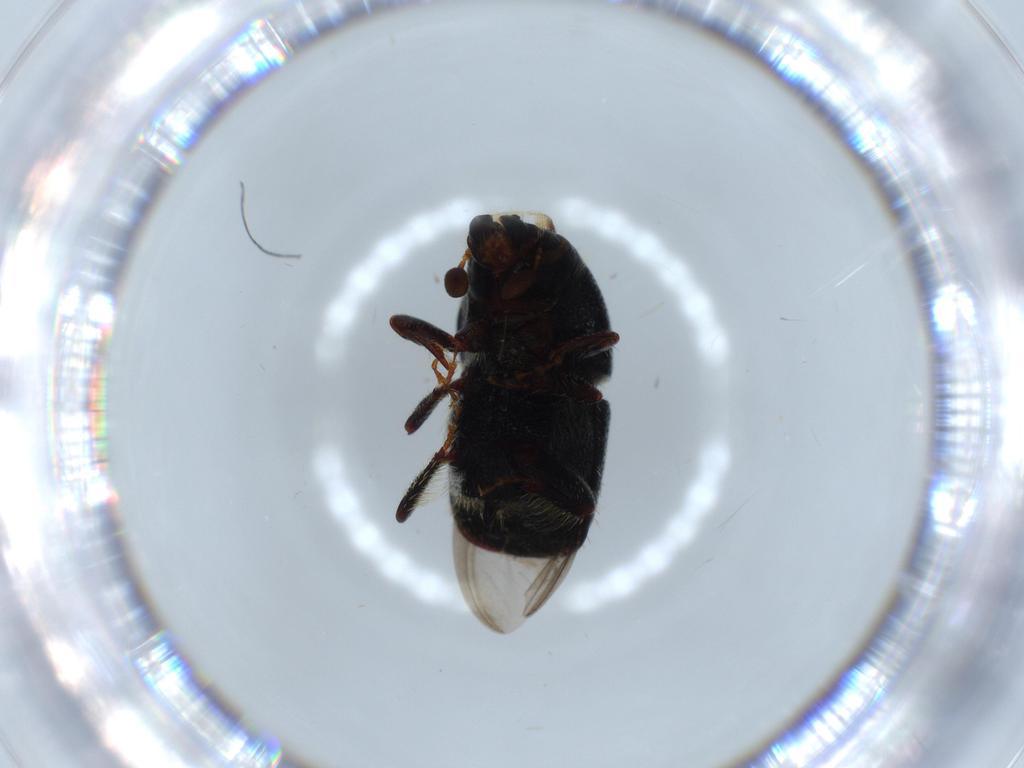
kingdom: Animalia
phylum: Arthropoda
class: Insecta
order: Coleoptera
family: Curculionidae
